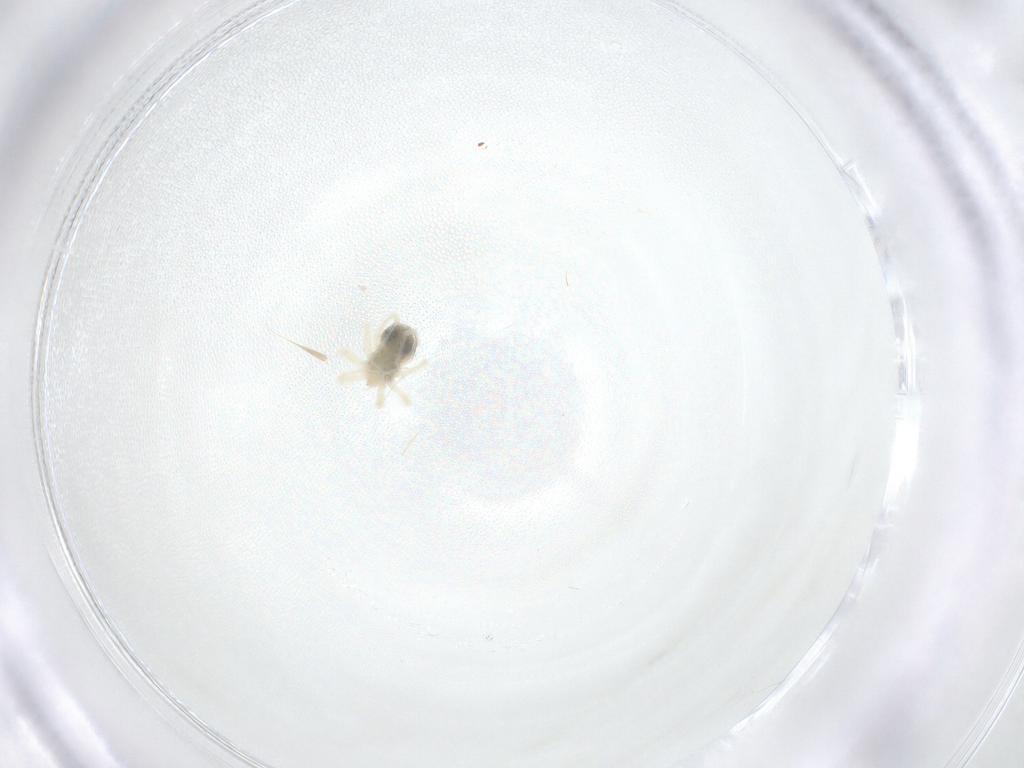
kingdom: Animalia
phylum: Arthropoda
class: Arachnida
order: Trombidiformes
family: Anystidae
